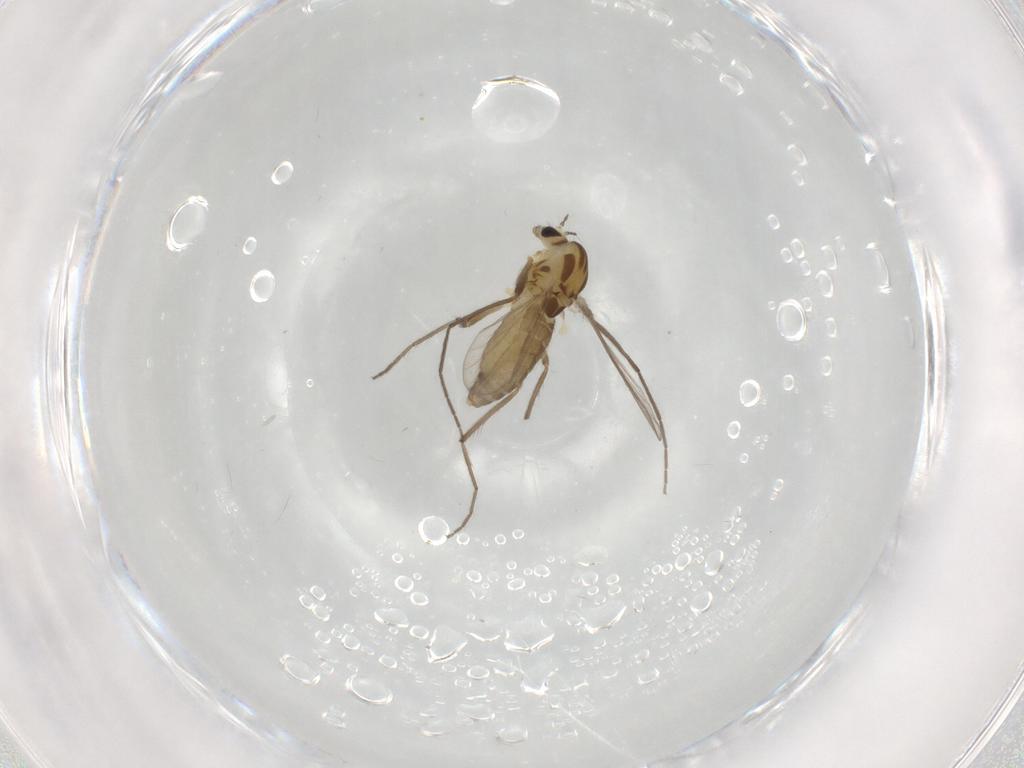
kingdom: Animalia
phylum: Arthropoda
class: Insecta
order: Diptera
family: Chironomidae
